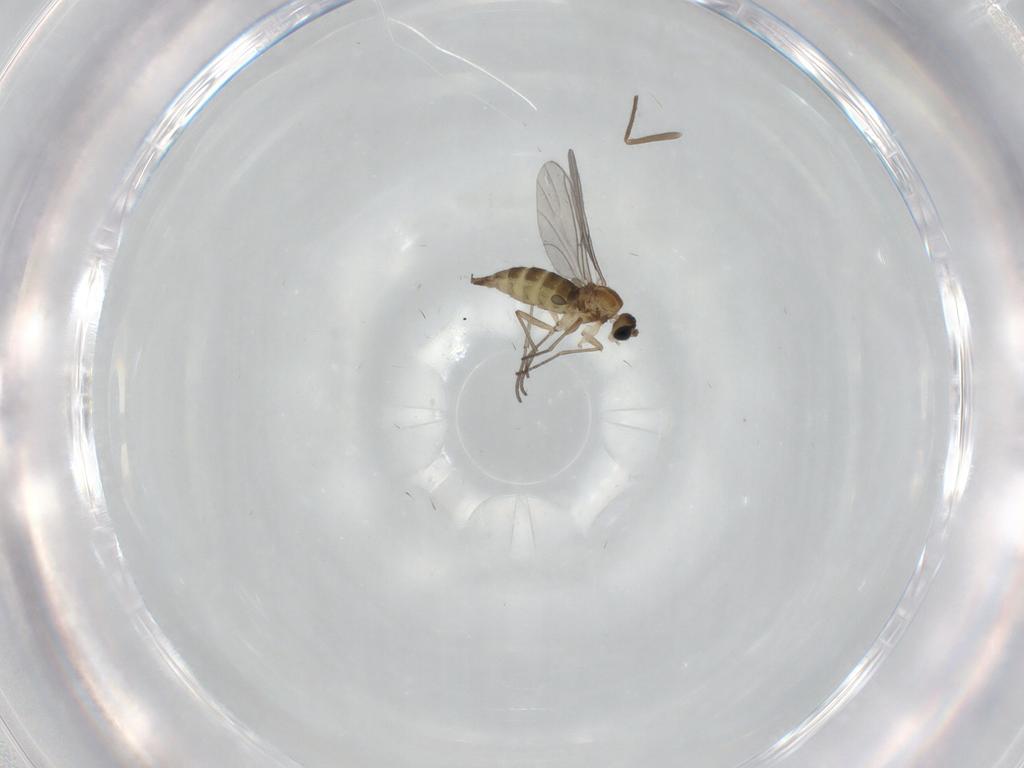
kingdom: Animalia
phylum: Arthropoda
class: Insecta
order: Diptera
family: Chironomidae
